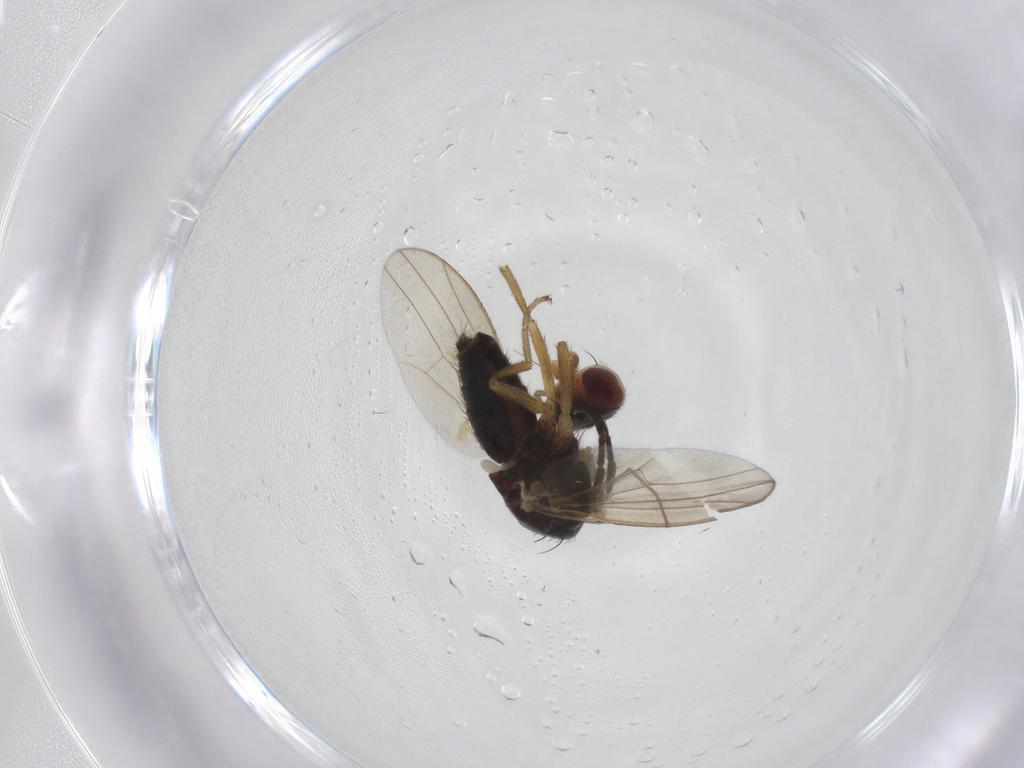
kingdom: Animalia
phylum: Arthropoda
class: Insecta
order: Diptera
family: Heleomyzidae
